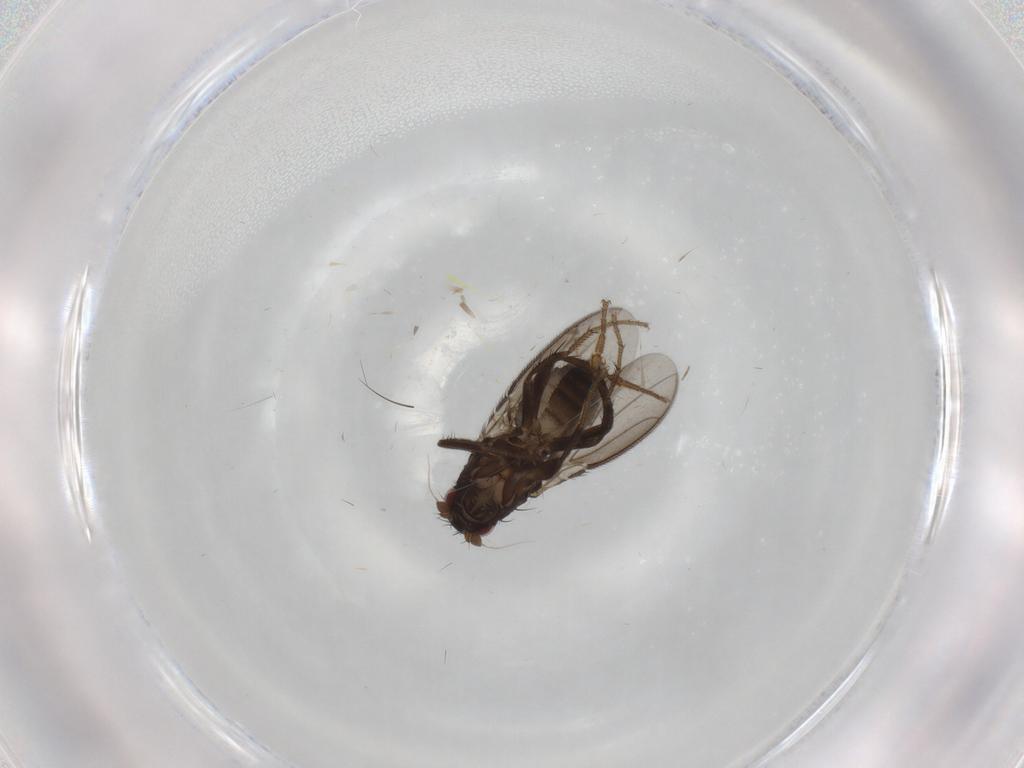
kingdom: Animalia
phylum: Arthropoda
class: Insecta
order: Diptera
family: Sphaeroceridae
